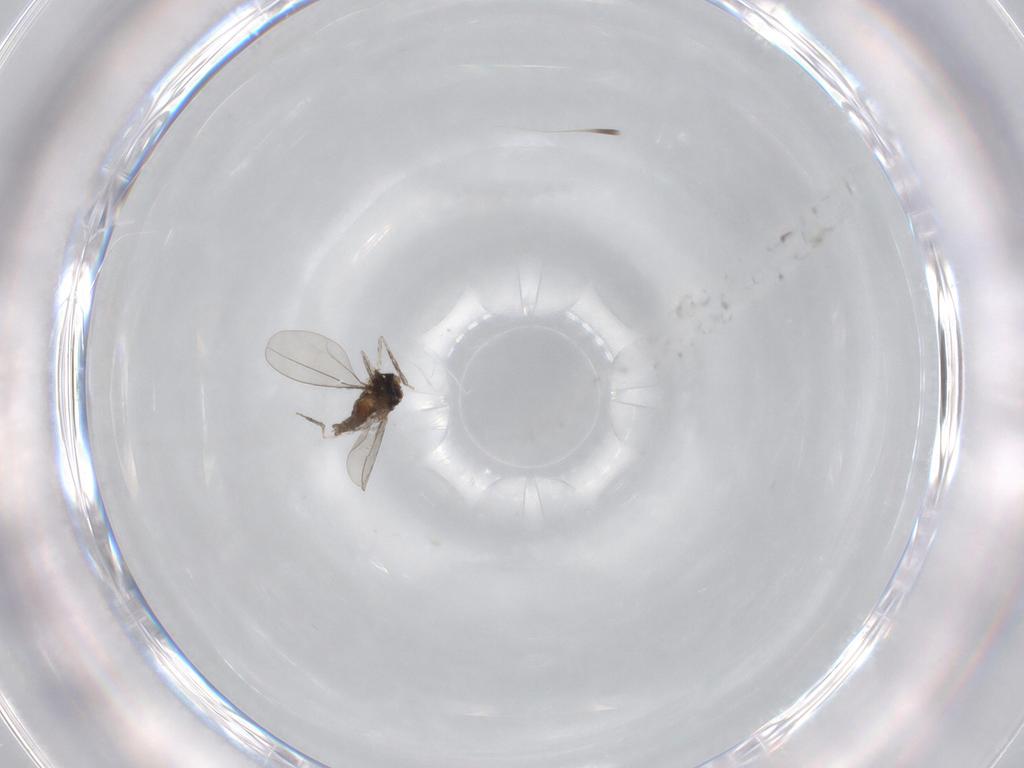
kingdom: Animalia
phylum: Arthropoda
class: Insecta
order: Diptera
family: Cecidomyiidae
